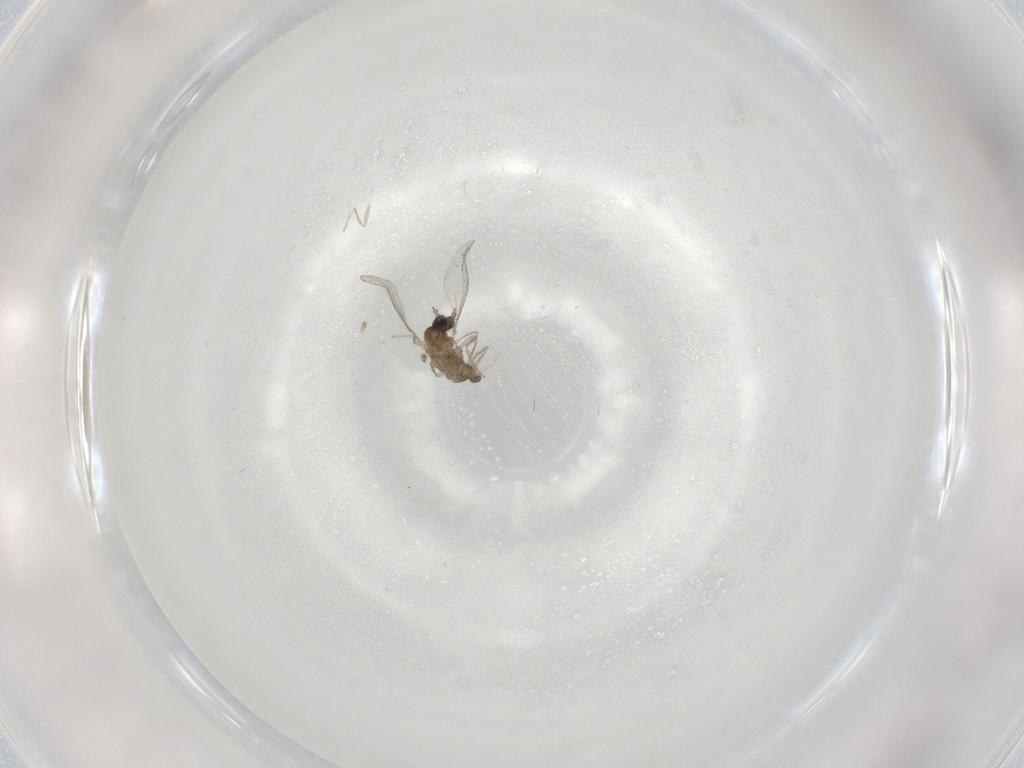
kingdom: Animalia
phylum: Arthropoda
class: Insecta
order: Diptera
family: Cecidomyiidae
